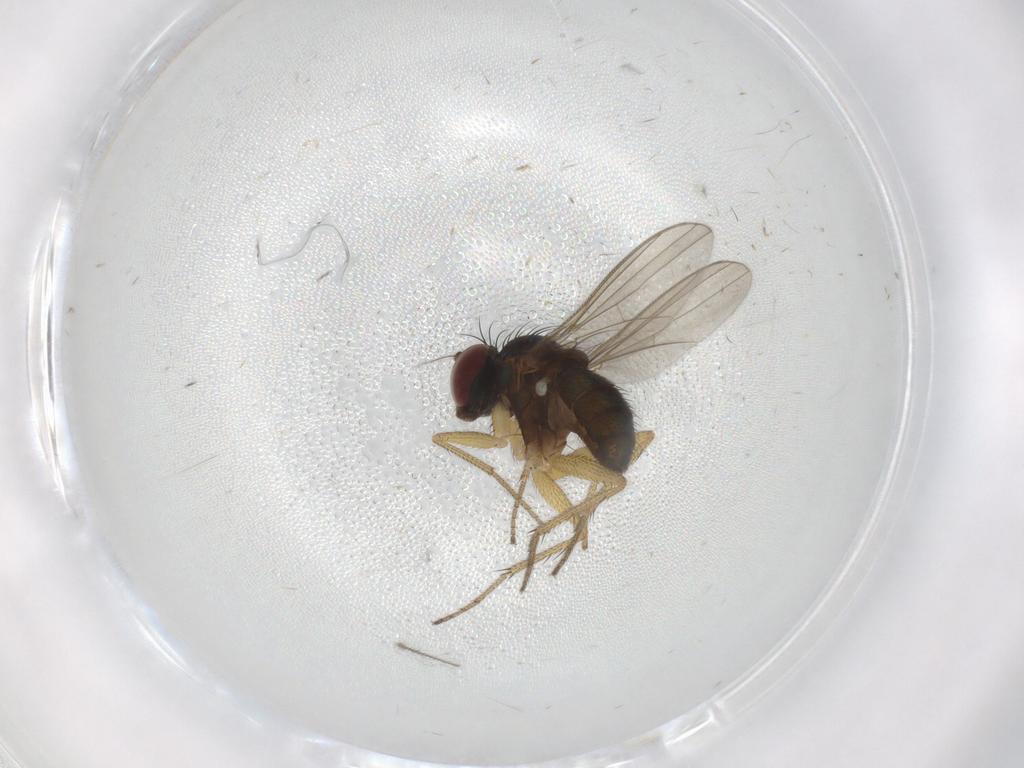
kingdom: Animalia
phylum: Arthropoda
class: Insecta
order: Diptera
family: Dolichopodidae
